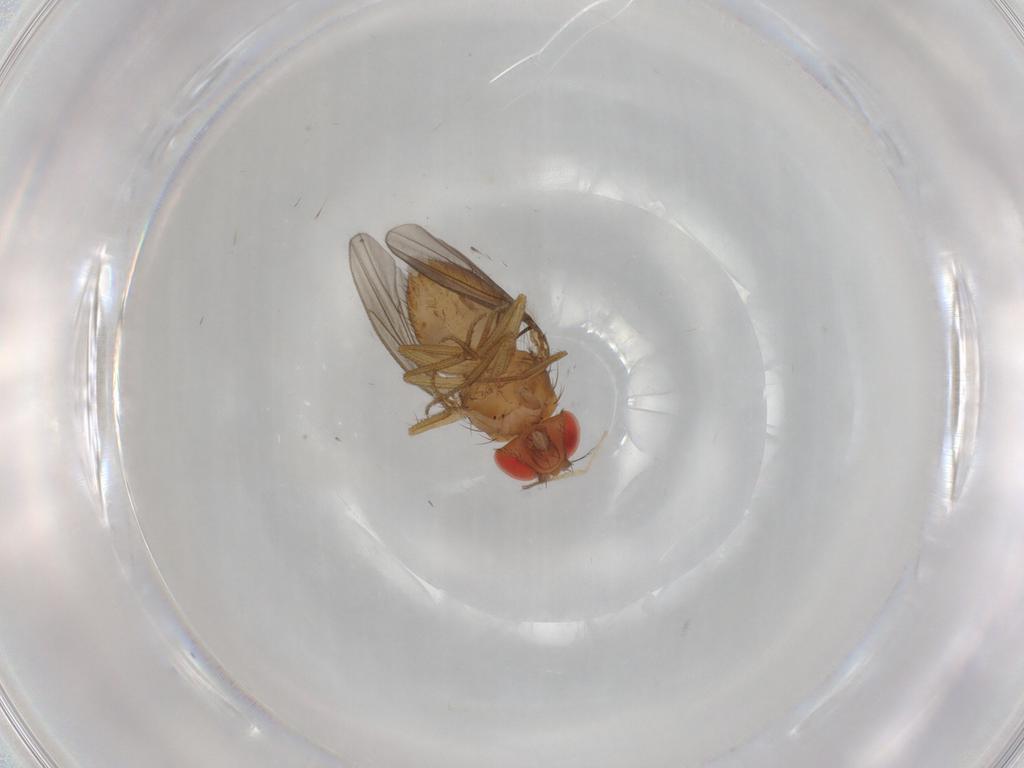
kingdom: Animalia
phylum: Arthropoda
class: Insecta
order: Diptera
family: Drosophilidae
